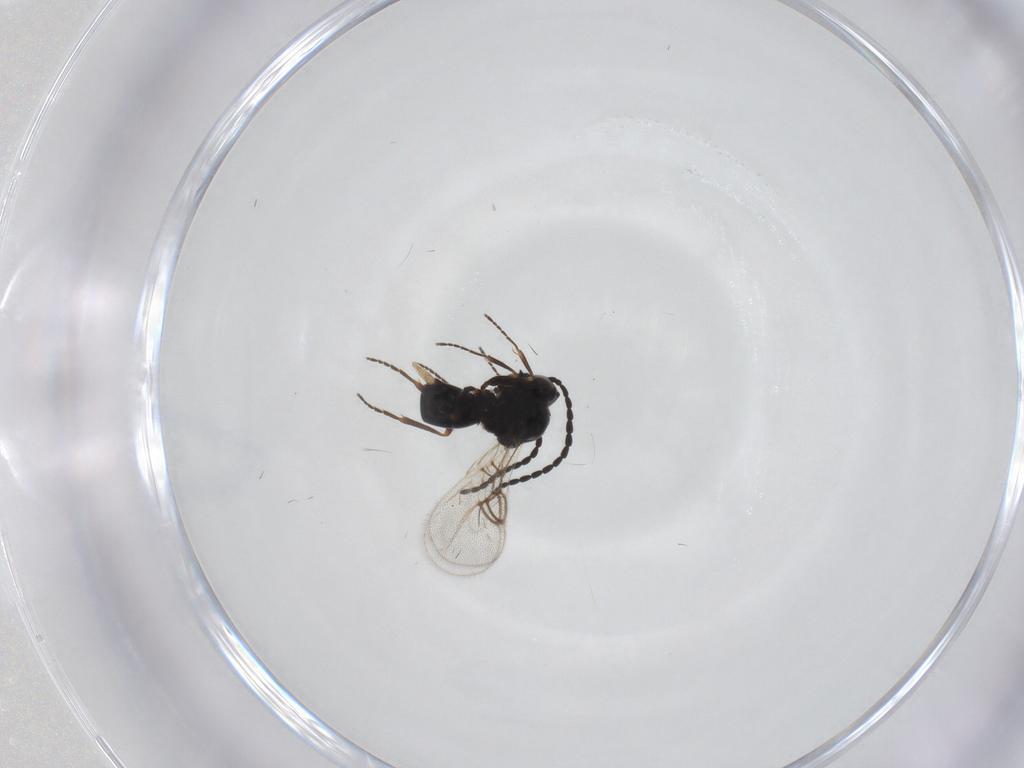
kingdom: Animalia
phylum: Arthropoda
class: Insecta
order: Hymenoptera
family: Figitidae
